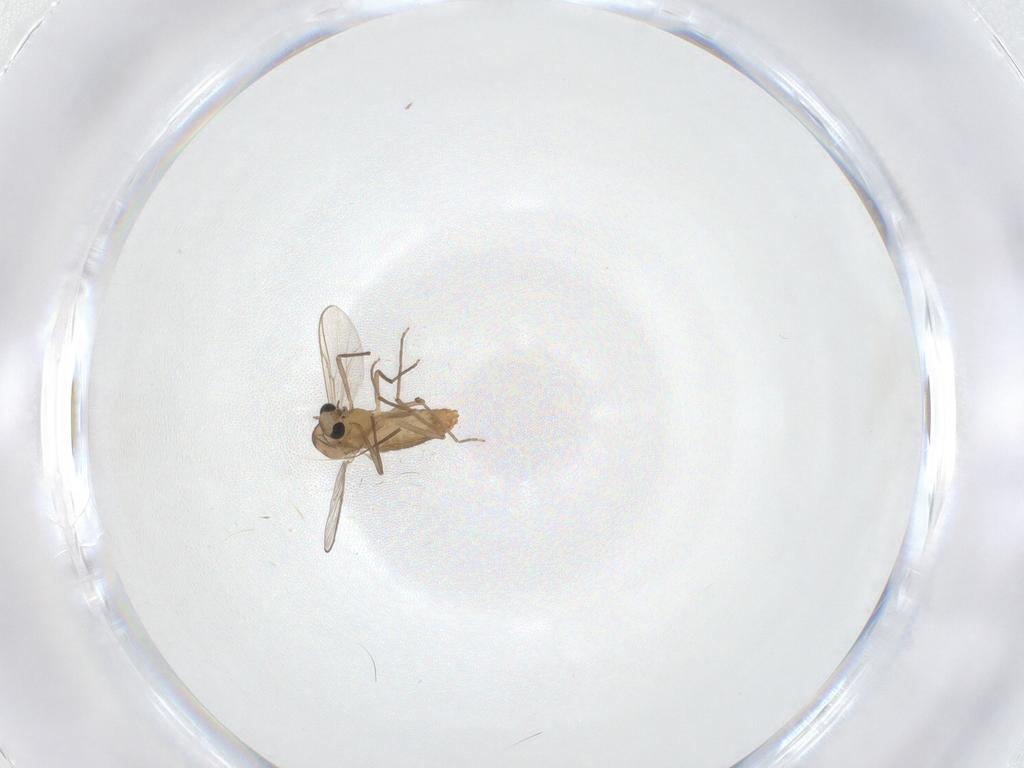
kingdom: Animalia
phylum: Arthropoda
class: Insecta
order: Diptera
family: Chironomidae
